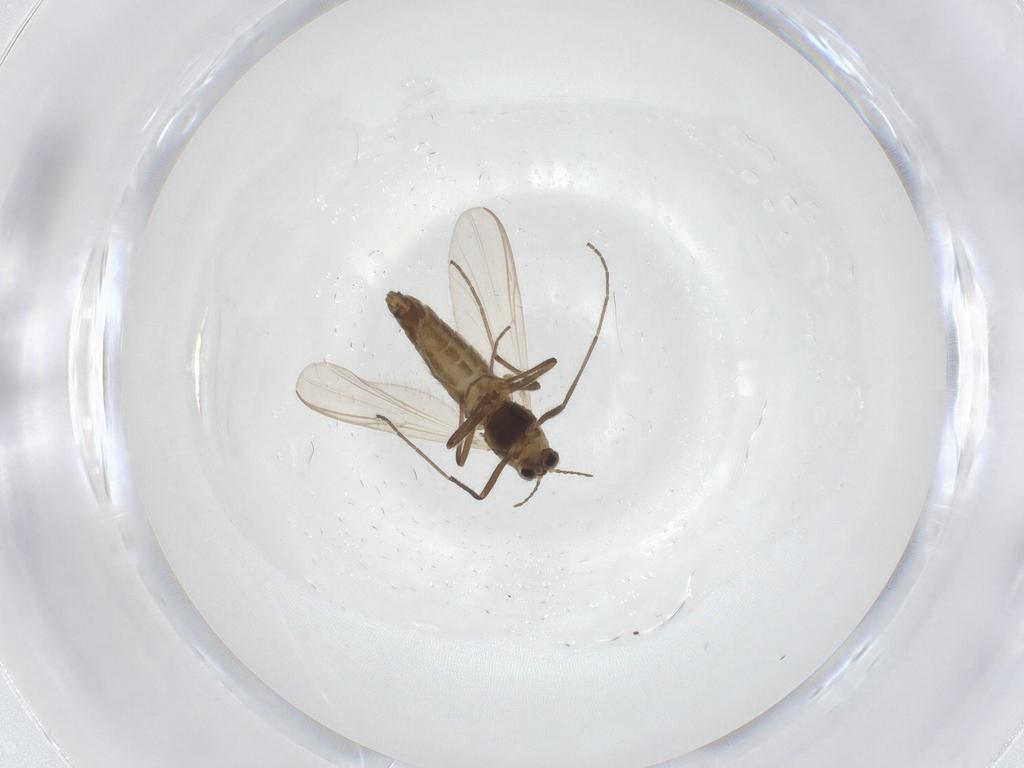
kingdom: Animalia
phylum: Arthropoda
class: Insecta
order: Diptera
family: Chironomidae
